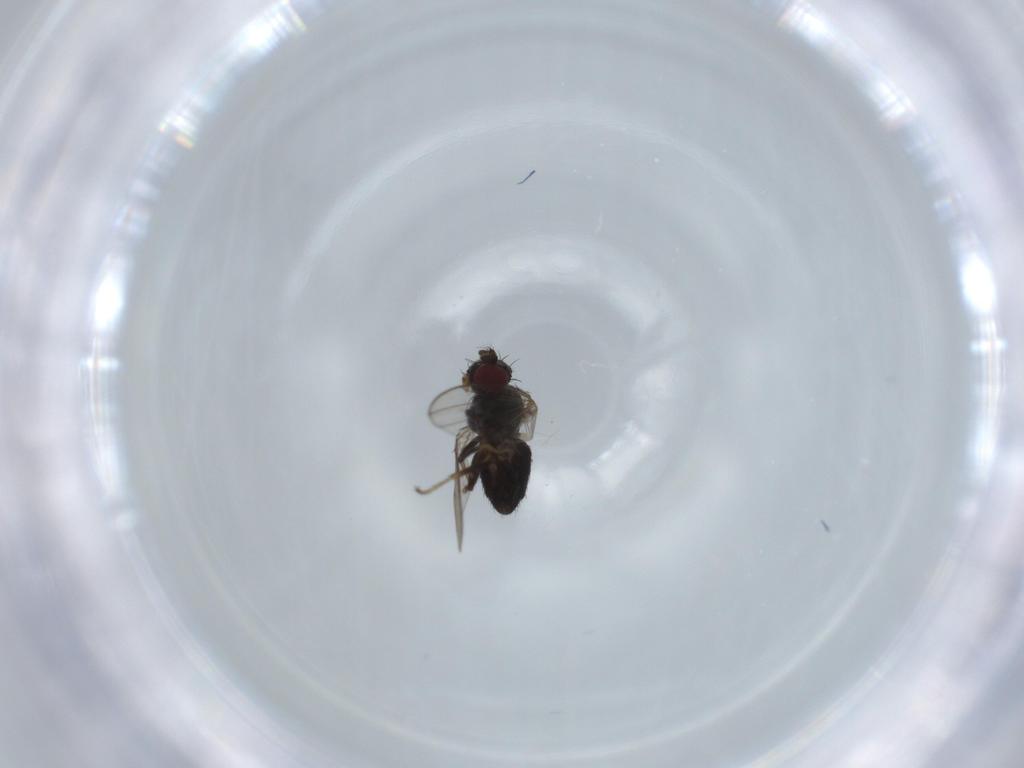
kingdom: Animalia
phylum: Arthropoda
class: Insecta
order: Diptera
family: Ephydridae
